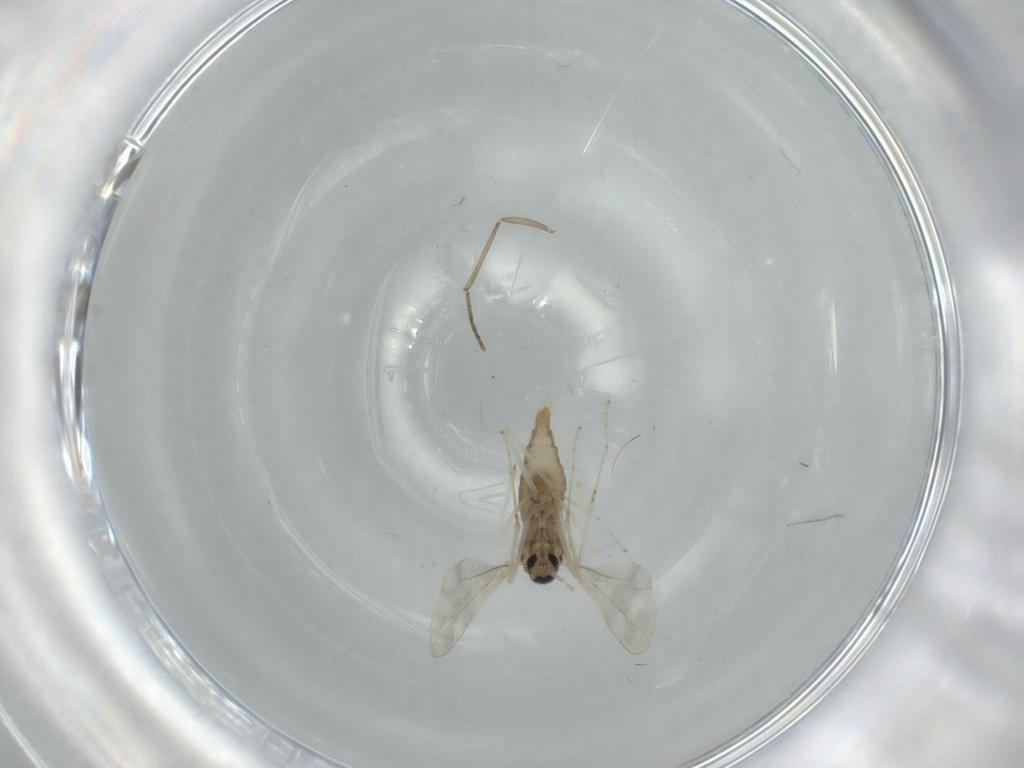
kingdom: Animalia
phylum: Arthropoda
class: Insecta
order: Diptera
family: Cecidomyiidae
